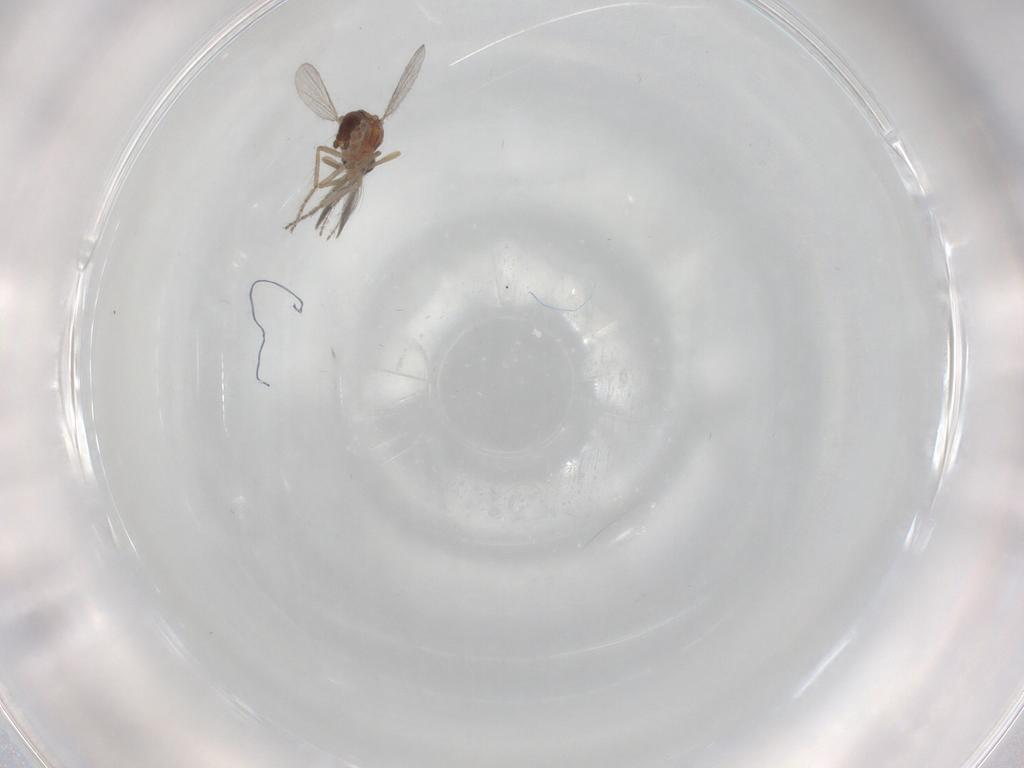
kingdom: Animalia
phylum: Arthropoda
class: Insecta
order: Diptera
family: Ceratopogonidae
